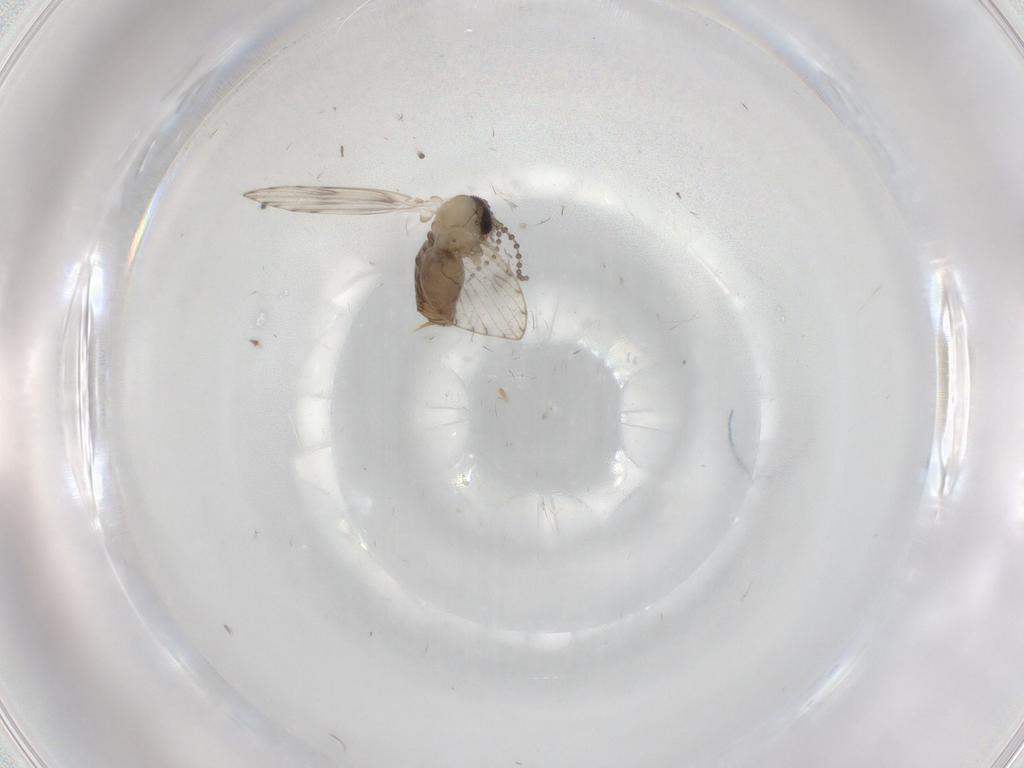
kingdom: Animalia
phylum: Arthropoda
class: Insecta
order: Diptera
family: Psychodidae
